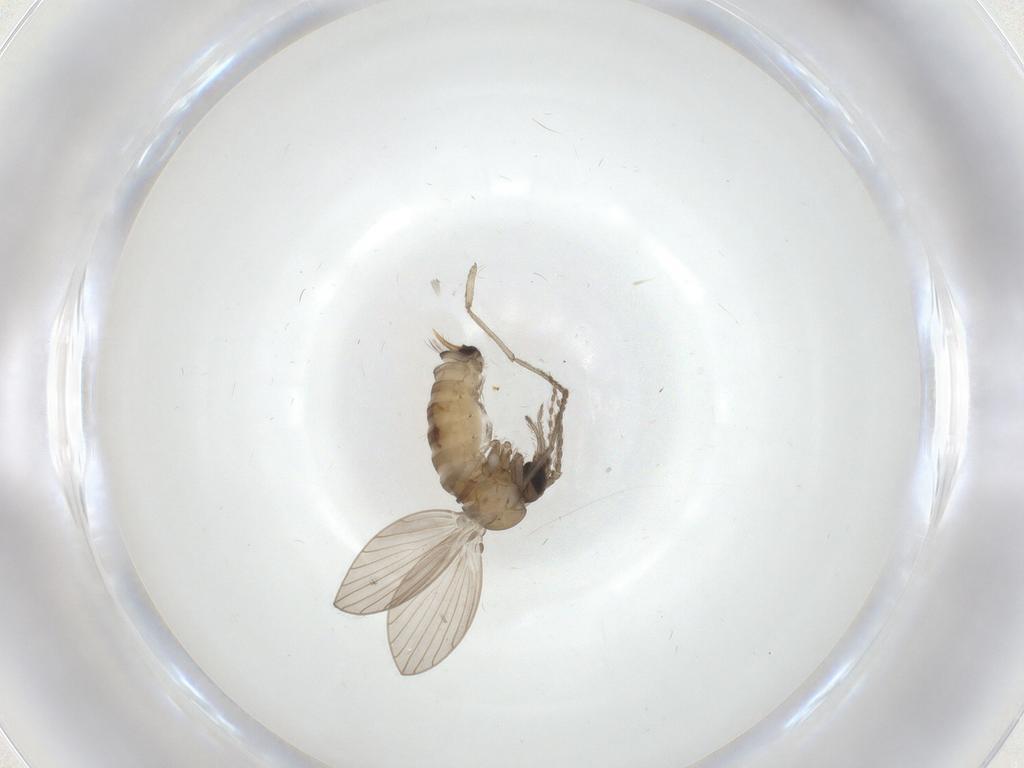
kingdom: Animalia
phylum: Arthropoda
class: Insecta
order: Diptera
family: Psychodidae
